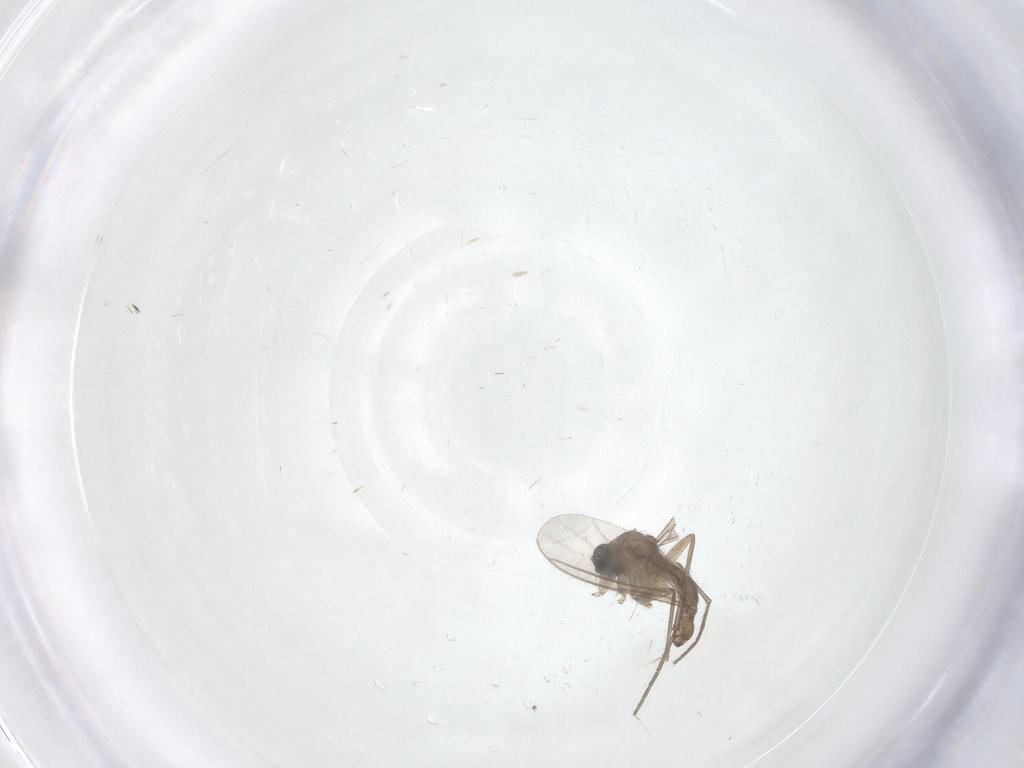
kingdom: Animalia
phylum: Arthropoda
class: Insecta
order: Diptera
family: Sciaridae
